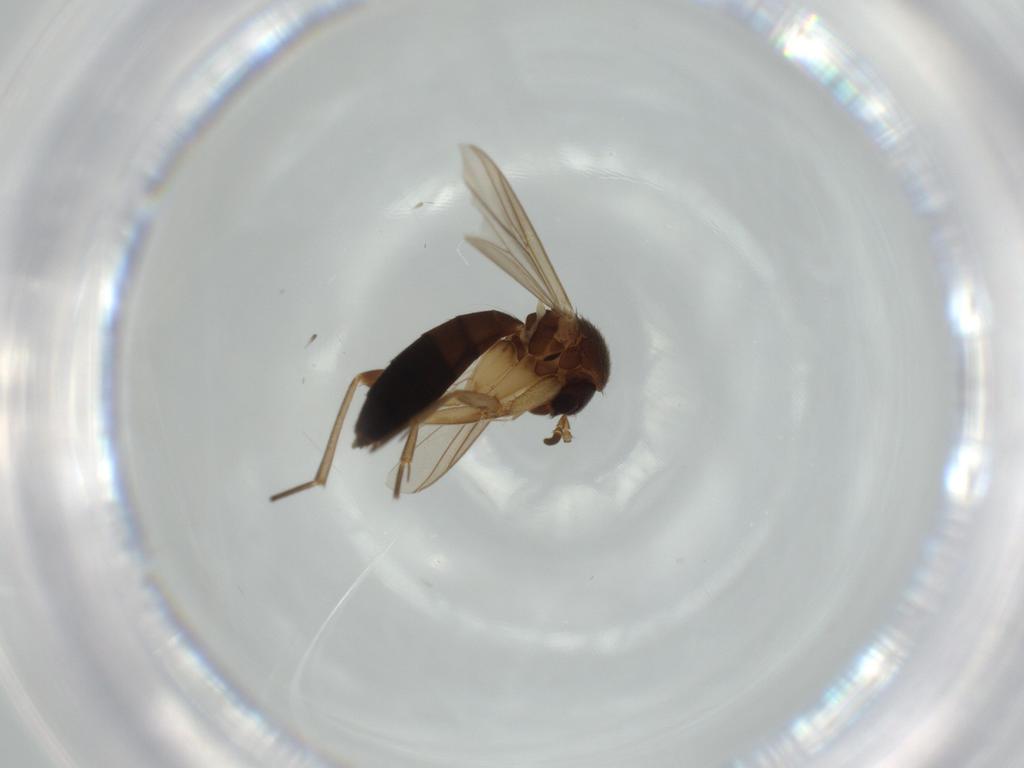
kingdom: Animalia
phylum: Arthropoda
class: Insecta
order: Diptera
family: Mycetophilidae
